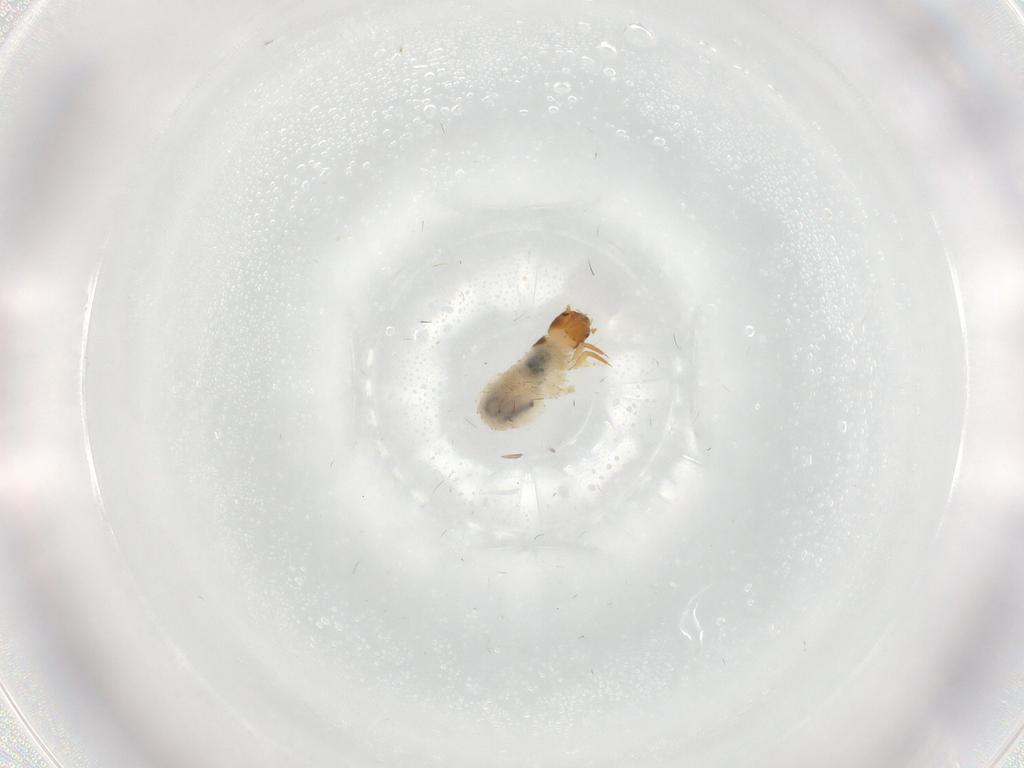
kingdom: Animalia
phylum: Arthropoda
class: Insecta
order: Coleoptera
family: Chrysomelidae
